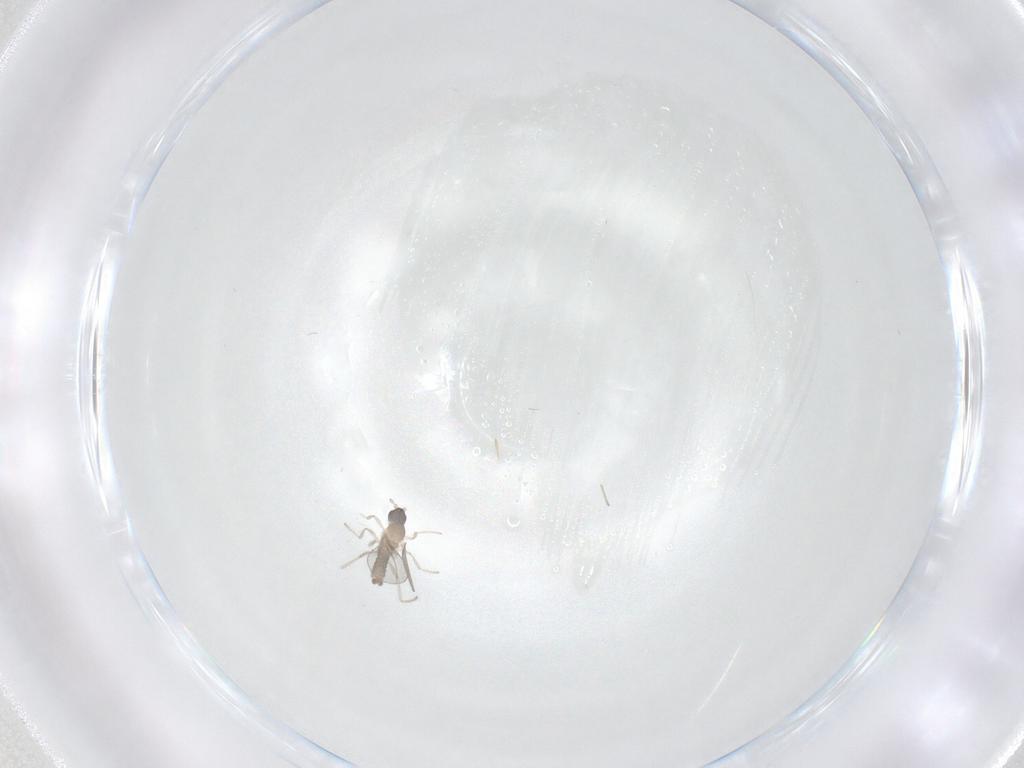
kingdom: Animalia
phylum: Arthropoda
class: Insecta
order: Diptera
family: Cecidomyiidae
